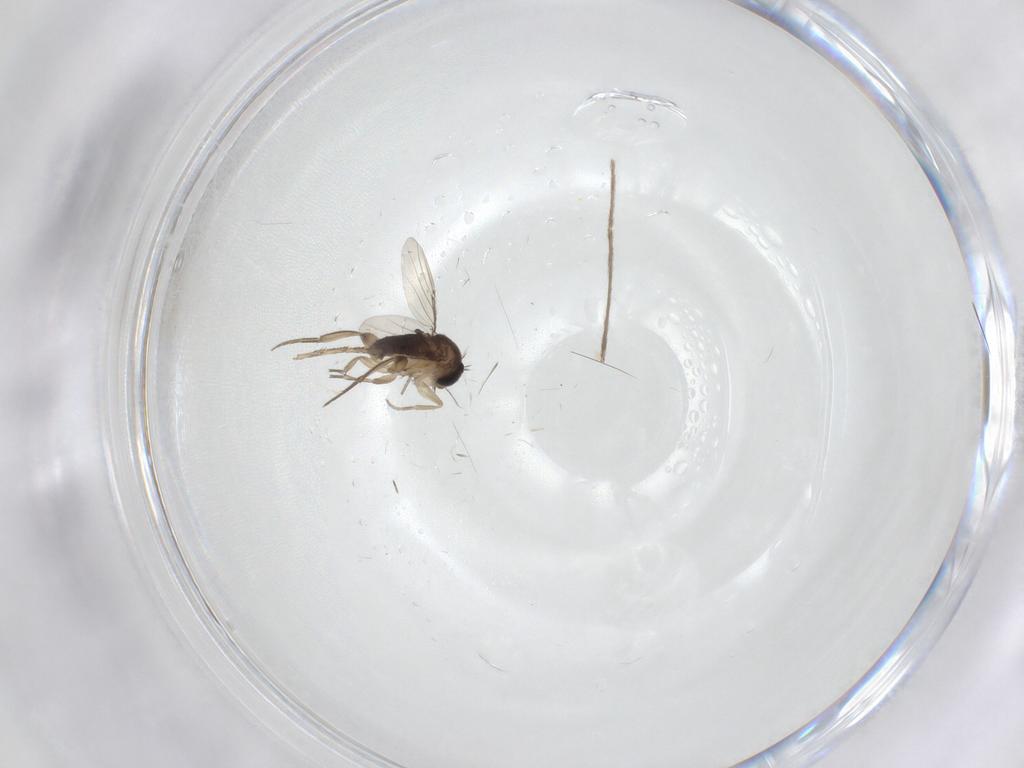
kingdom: Animalia
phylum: Arthropoda
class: Insecta
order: Diptera
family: Phoridae
